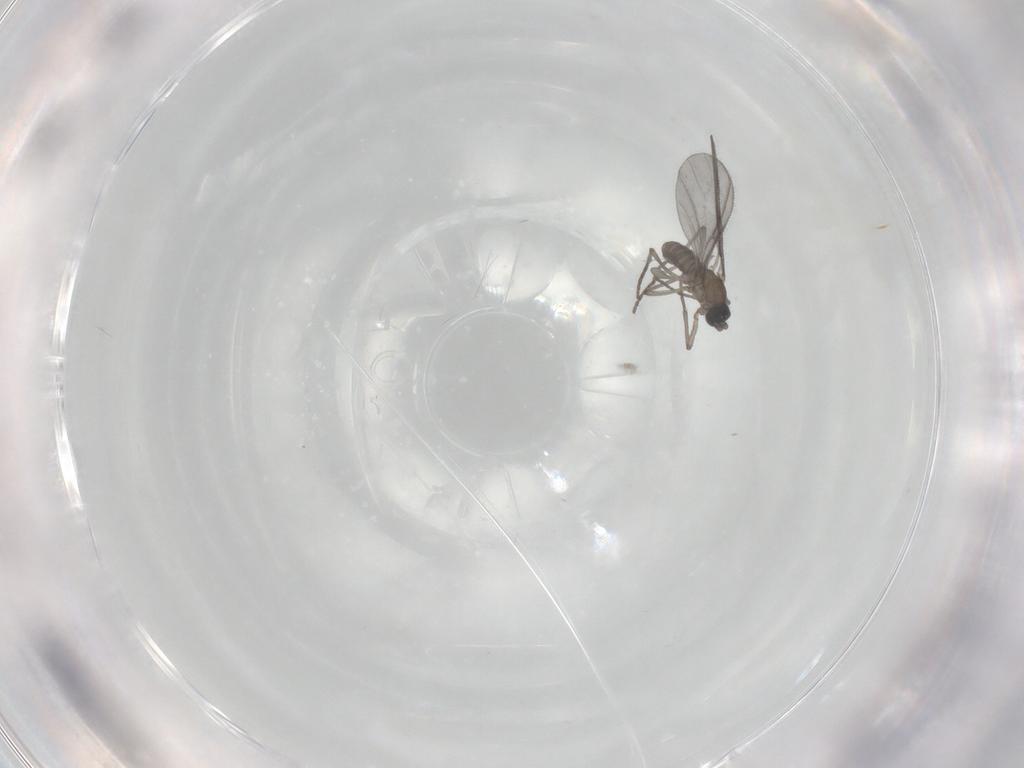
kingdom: Animalia
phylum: Arthropoda
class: Insecta
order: Diptera
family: Sciaridae
